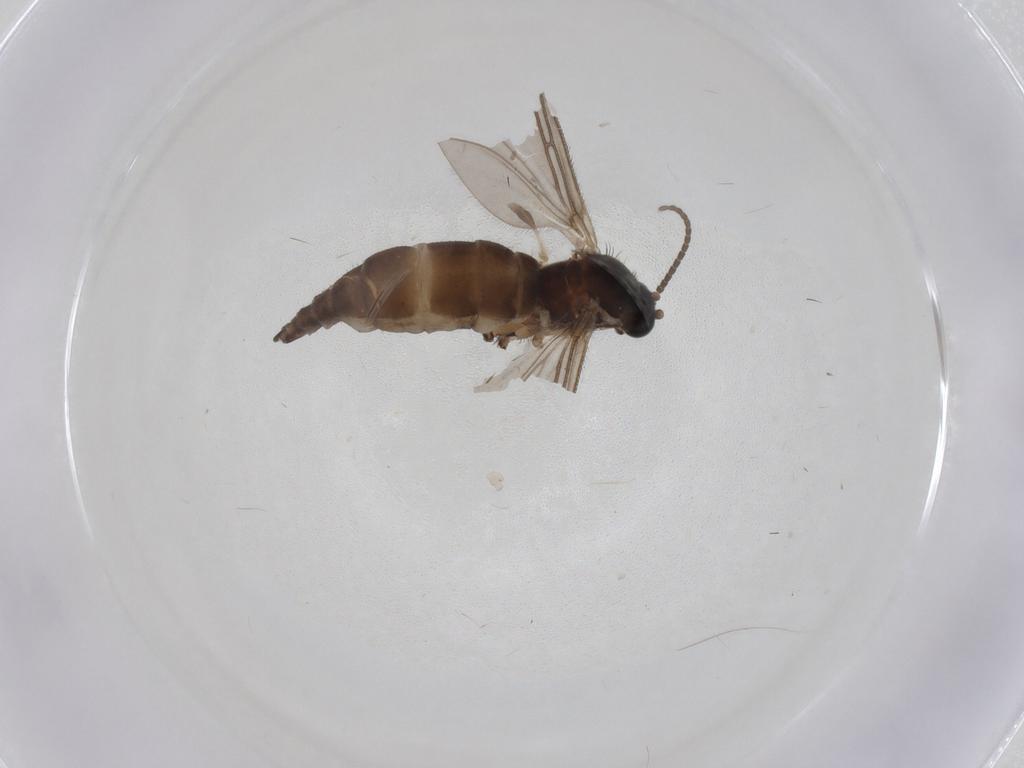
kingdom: Animalia
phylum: Arthropoda
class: Insecta
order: Diptera
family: Sciaridae
